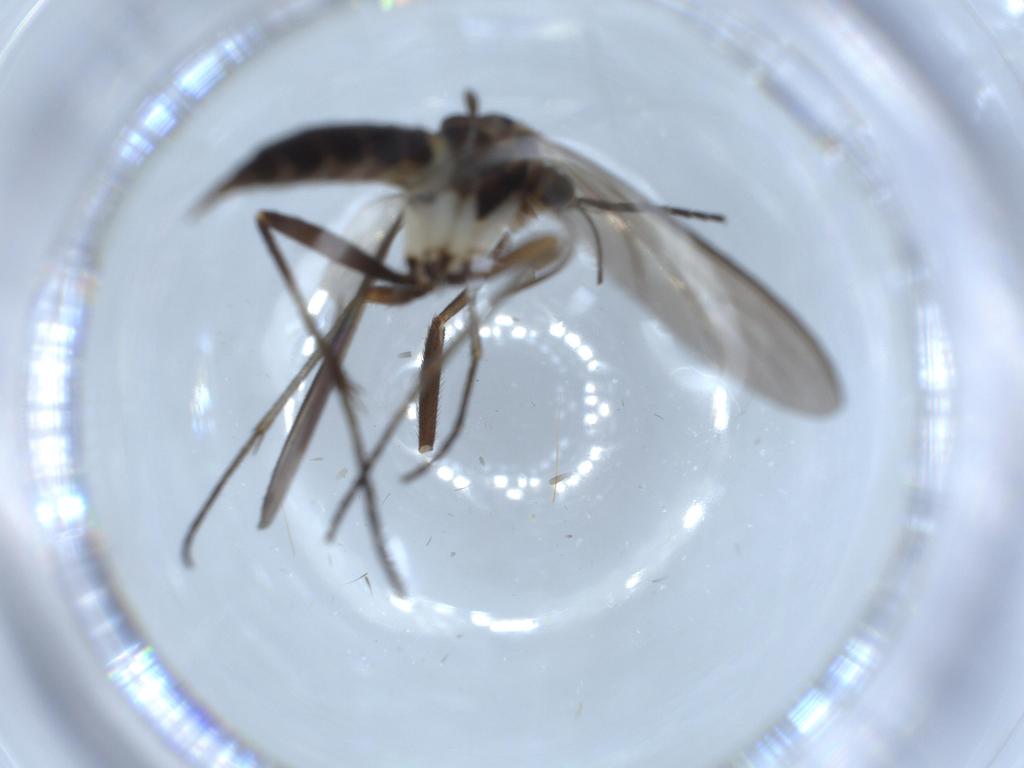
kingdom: Animalia
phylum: Arthropoda
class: Insecta
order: Diptera
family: Sciaridae
